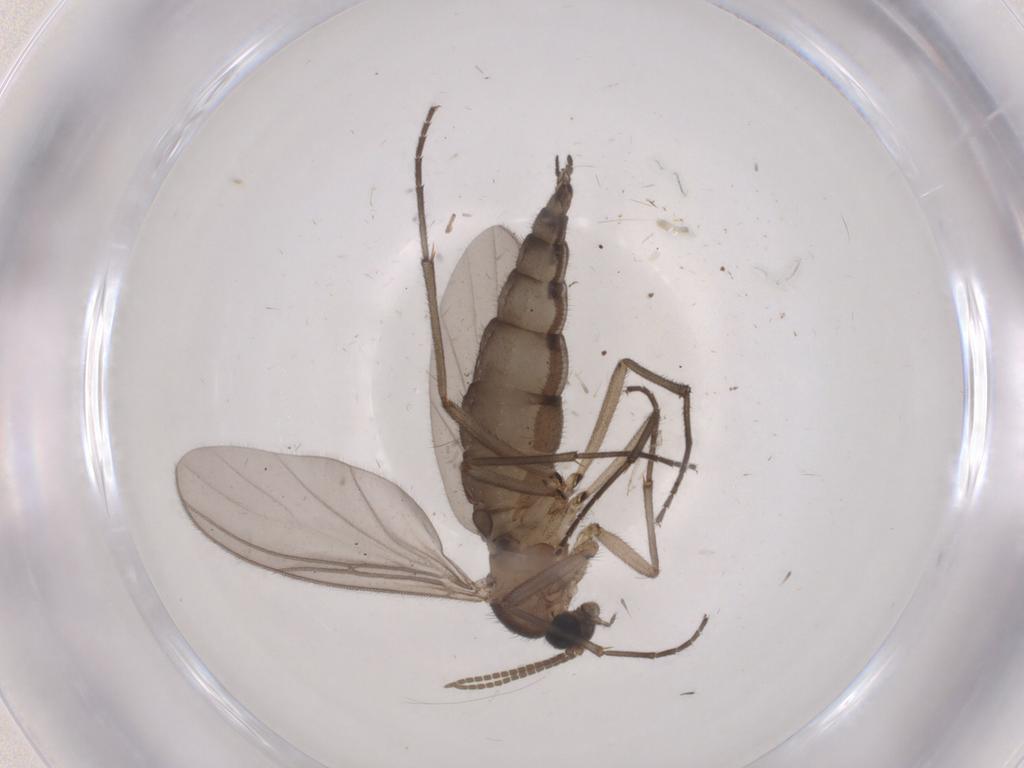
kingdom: Animalia
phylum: Arthropoda
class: Insecta
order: Diptera
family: Cecidomyiidae
